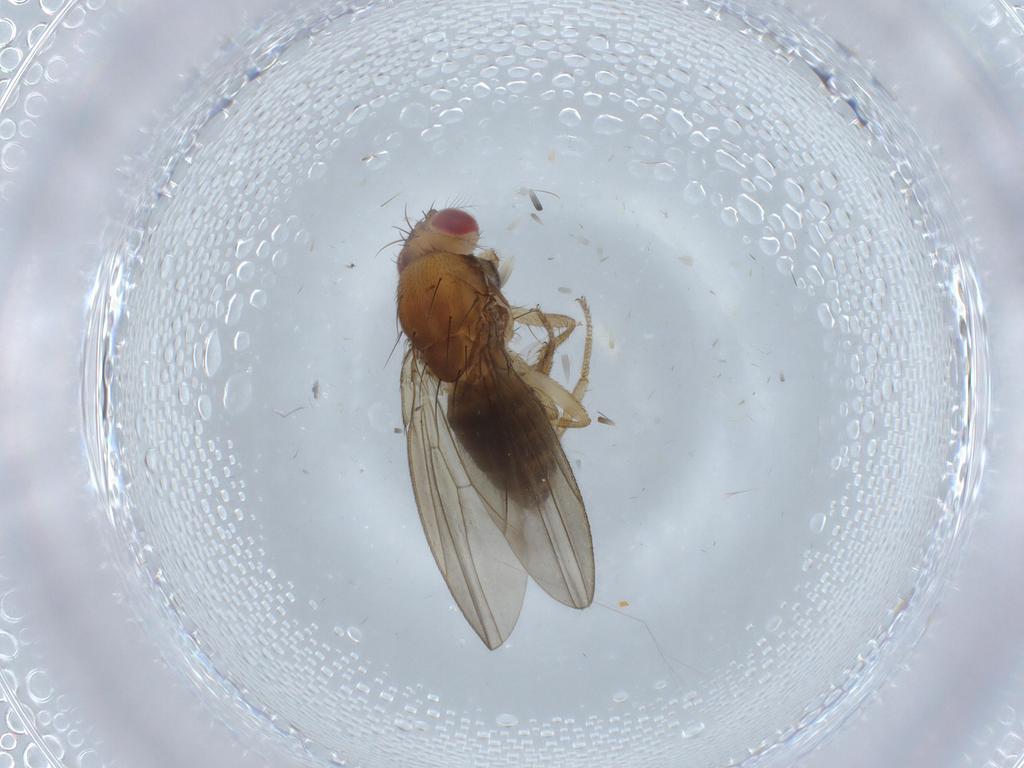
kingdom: Animalia
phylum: Arthropoda
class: Insecta
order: Diptera
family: Drosophilidae
